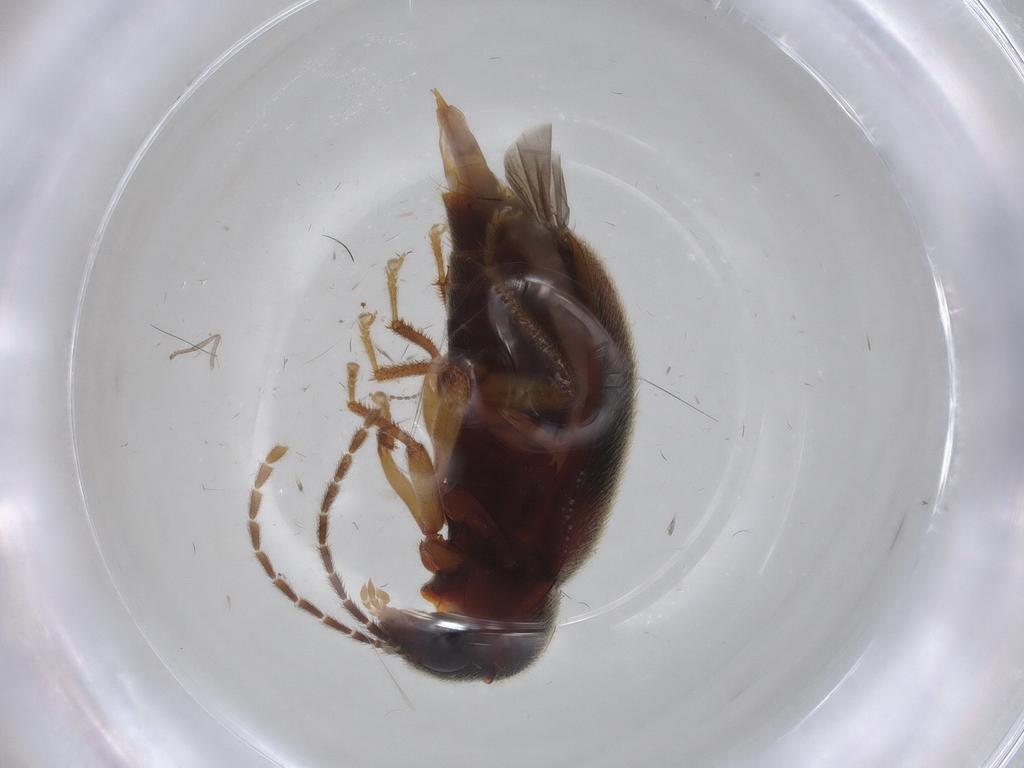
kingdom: Animalia
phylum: Arthropoda
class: Insecta
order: Coleoptera
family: Ptilodactylidae
